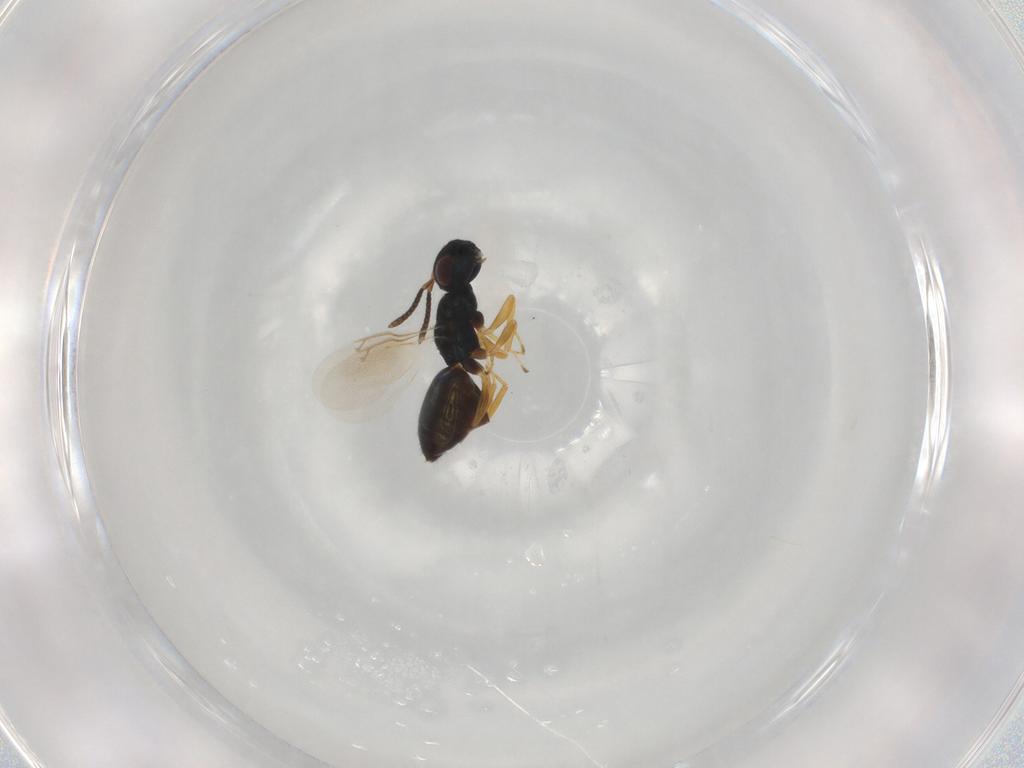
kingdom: Animalia
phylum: Arthropoda
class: Insecta
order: Hymenoptera
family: Pteromalidae
